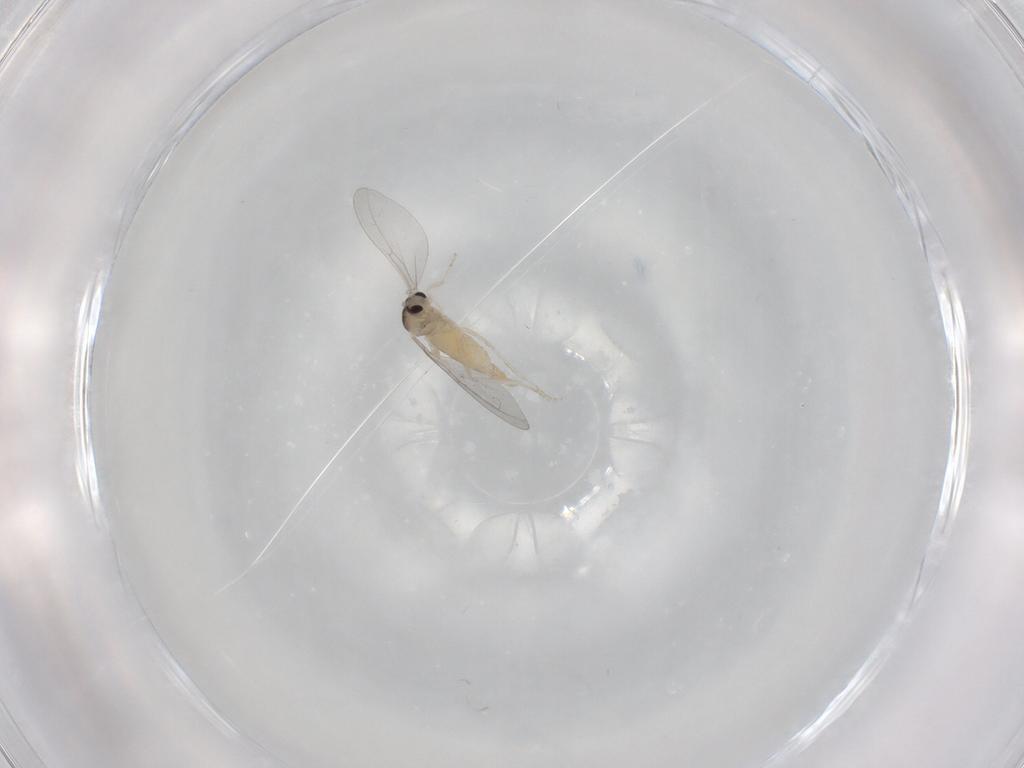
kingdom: Animalia
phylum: Arthropoda
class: Insecta
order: Diptera
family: Cecidomyiidae
